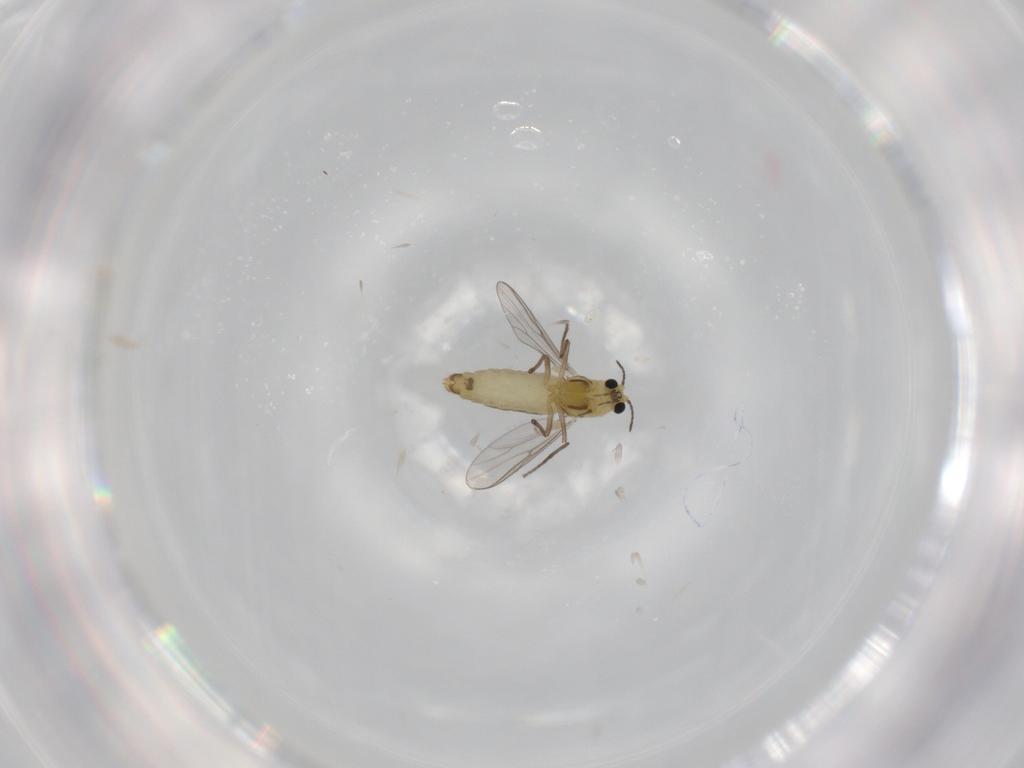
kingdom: Animalia
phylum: Arthropoda
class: Insecta
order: Diptera
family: Chironomidae
